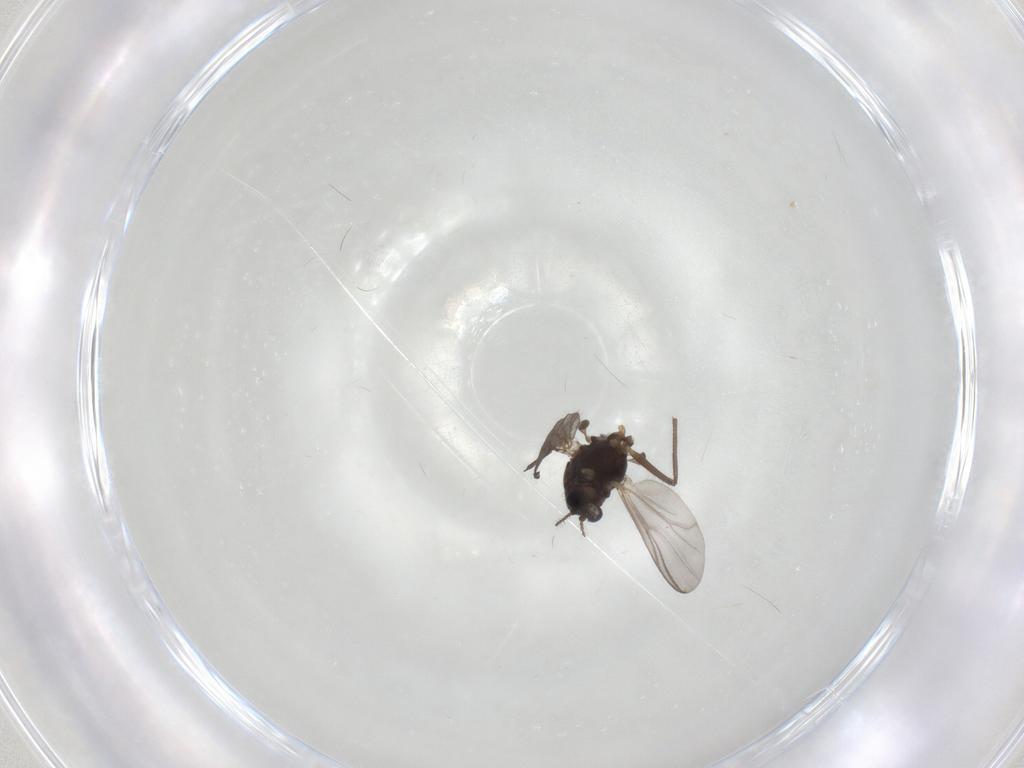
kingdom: Animalia
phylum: Arthropoda
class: Insecta
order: Diptera
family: Chironomidae
